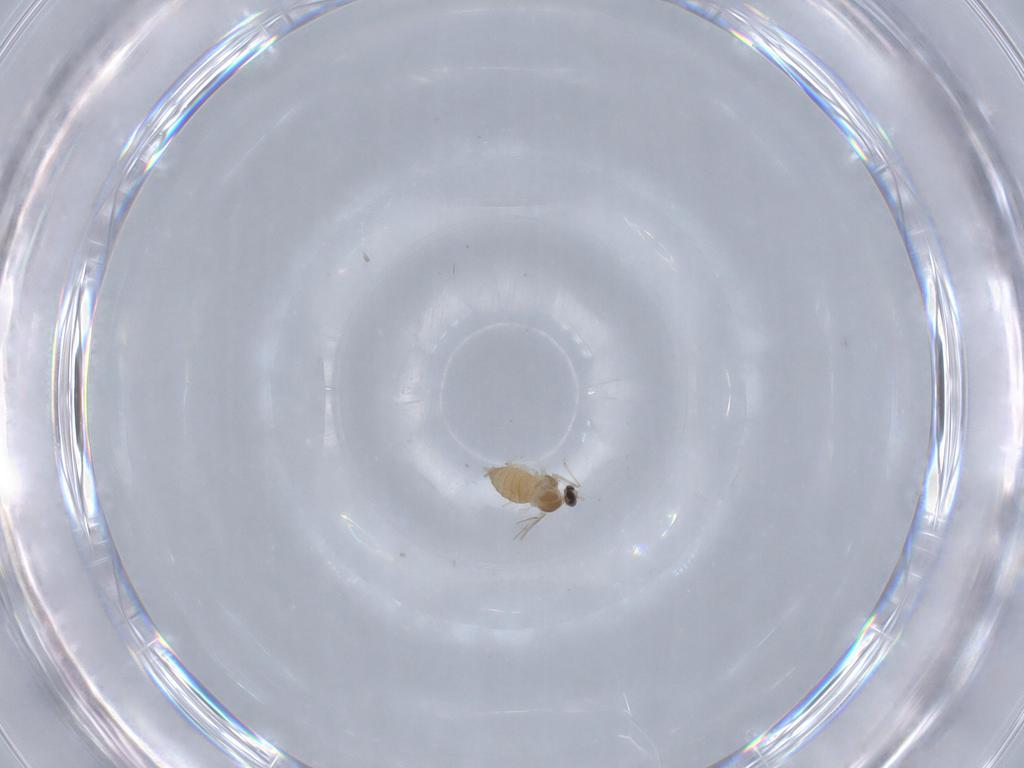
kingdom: Animalia
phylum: Arthropoda
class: Insecta
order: Diptera
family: Cecidomyiidae
